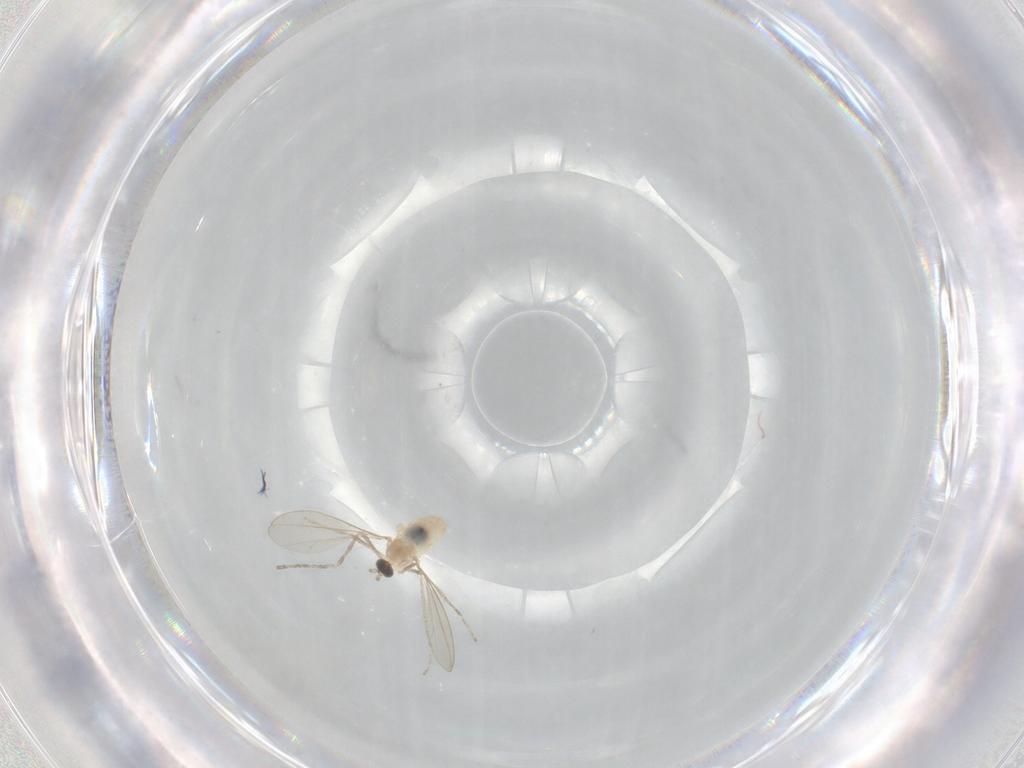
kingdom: Animalia
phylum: Arthropoda
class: Insecta
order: Diptera
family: Cecidomyiidae
